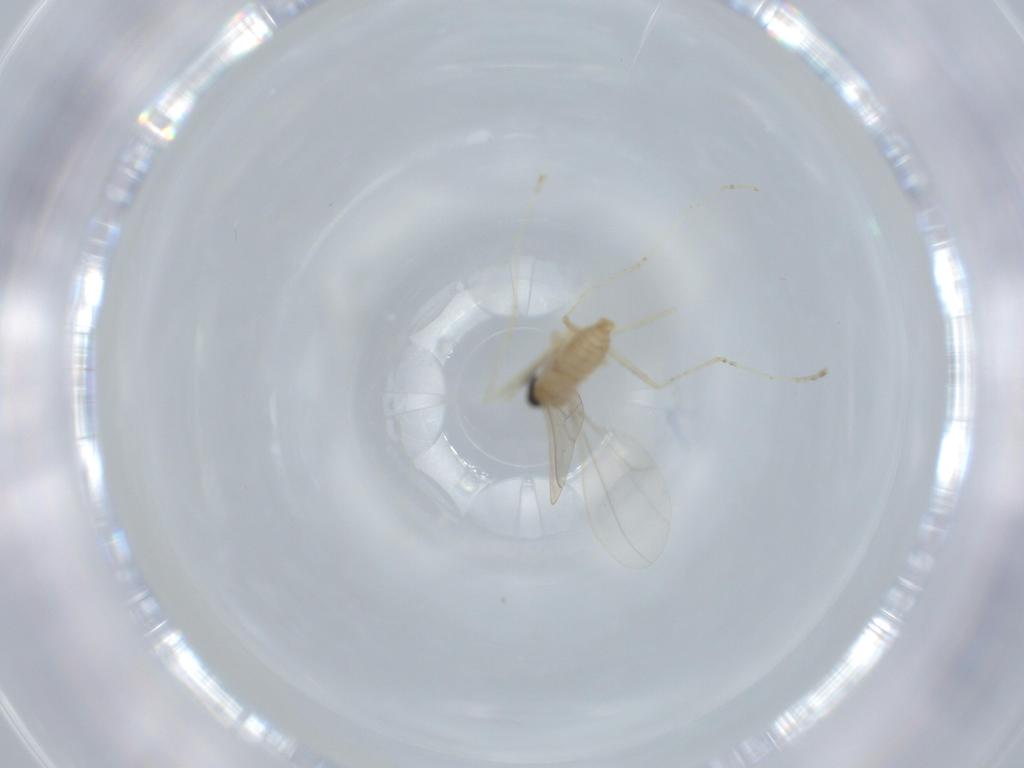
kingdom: Animalia
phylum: Arthropoda
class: Insecta
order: Diptera
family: Cecidomyiidae
